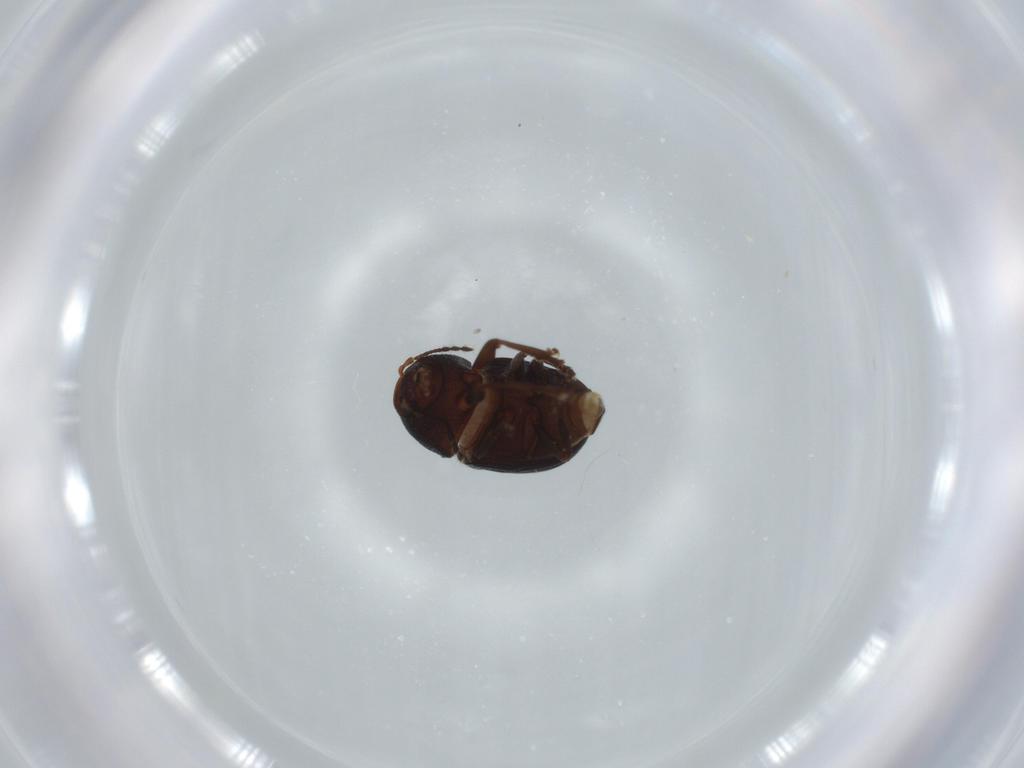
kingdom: Animalia
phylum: Arthropoda
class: Insecta
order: Coleoptera
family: Anthribidae
